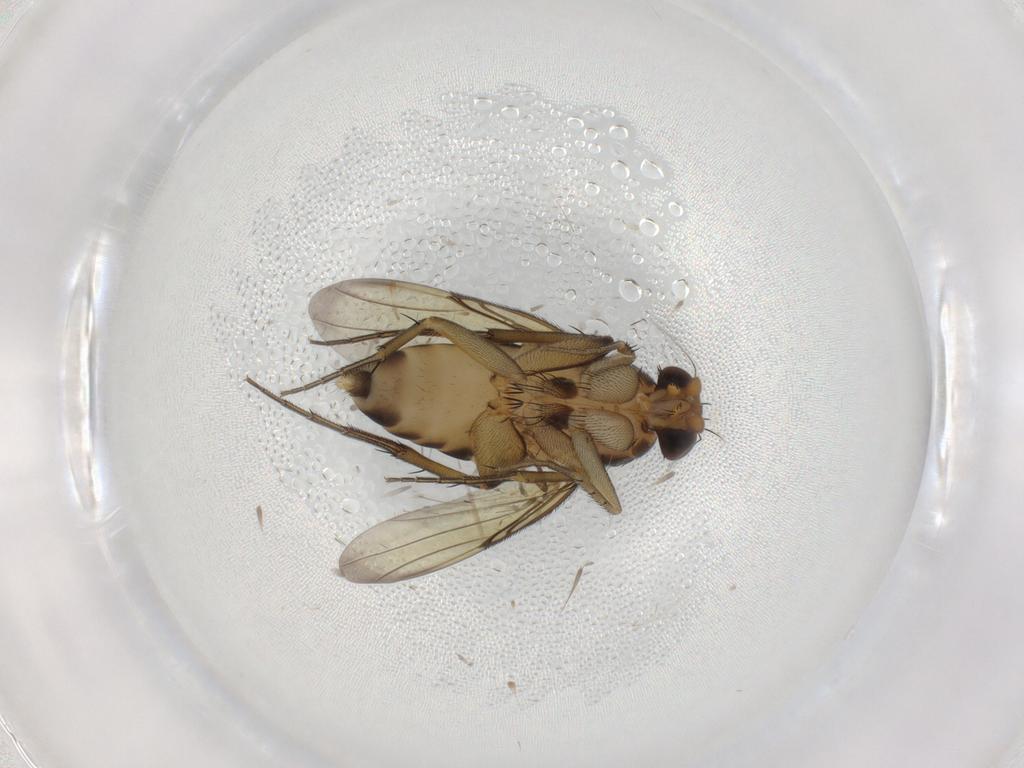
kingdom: Animalia
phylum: Arthropoda
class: Insecta
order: Diptera
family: Sciaridae
